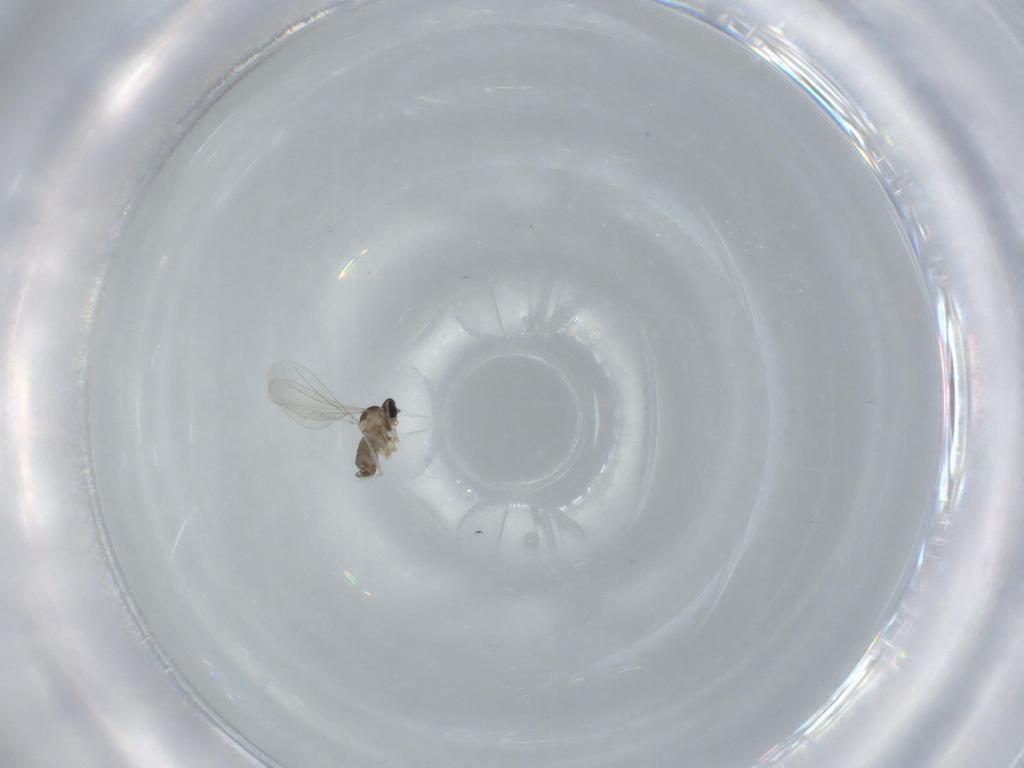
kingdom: Animalia
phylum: Arthropoda
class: Insecta
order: Diptera
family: Cecidomyiidae
